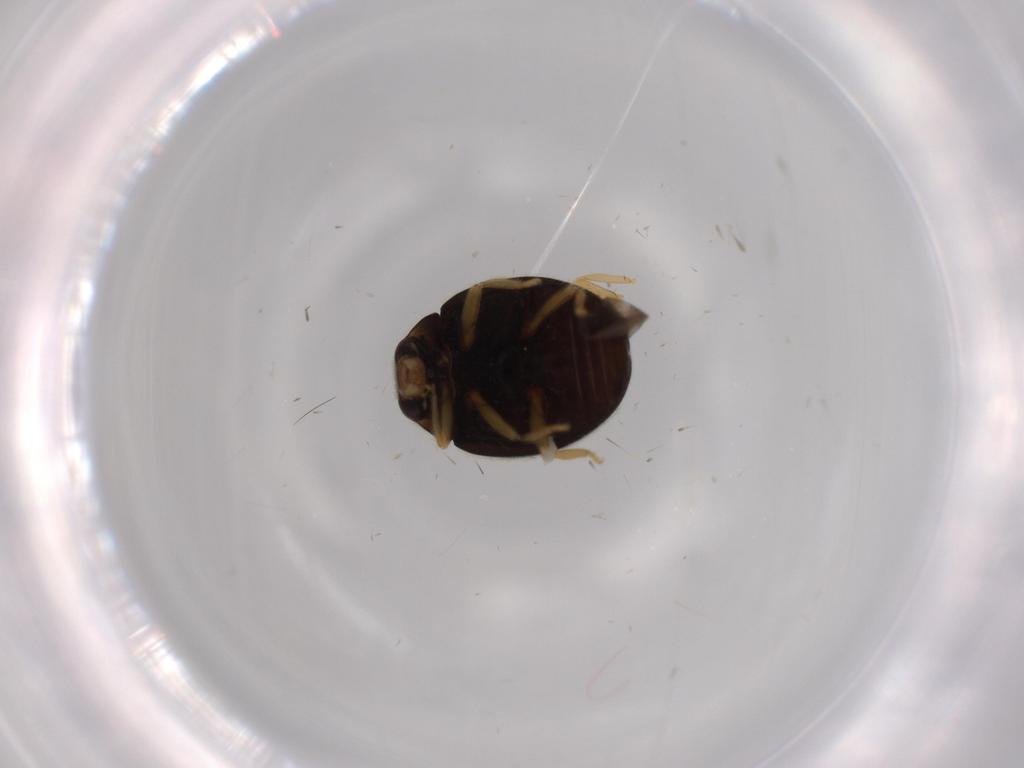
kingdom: Animalia
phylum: Arthropoda
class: Insecta
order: Coleoptera
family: Coccinellidae
